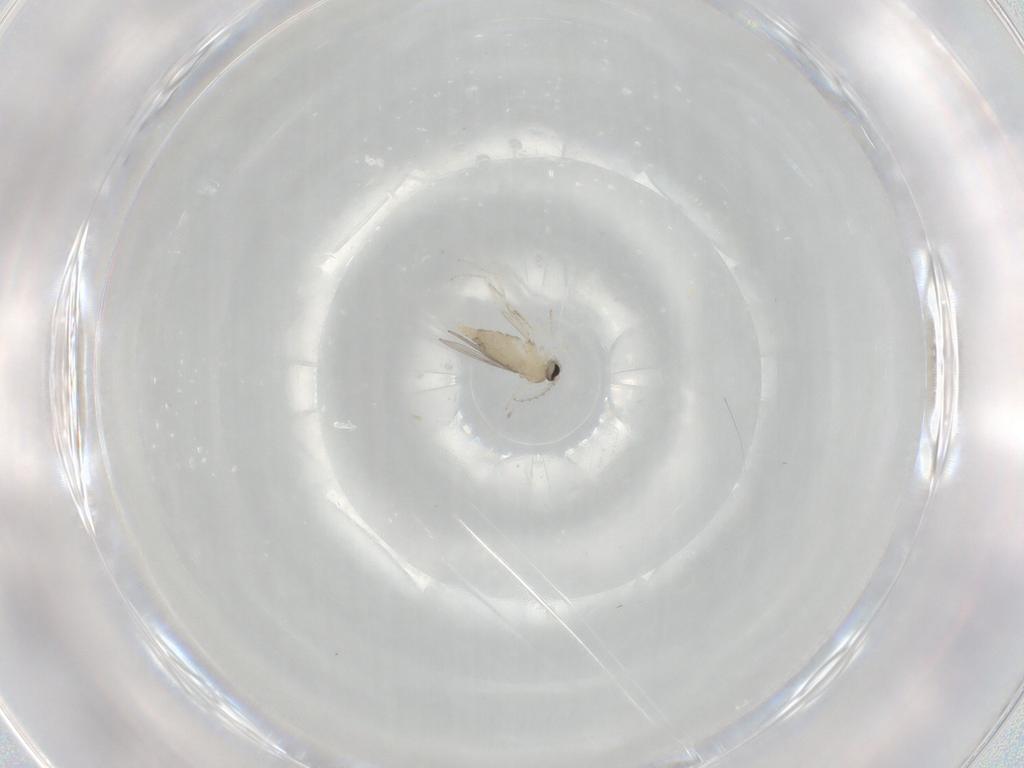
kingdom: Animalia
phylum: Arthropoda
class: Insecta
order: Diptera
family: Cecidomyiidae
